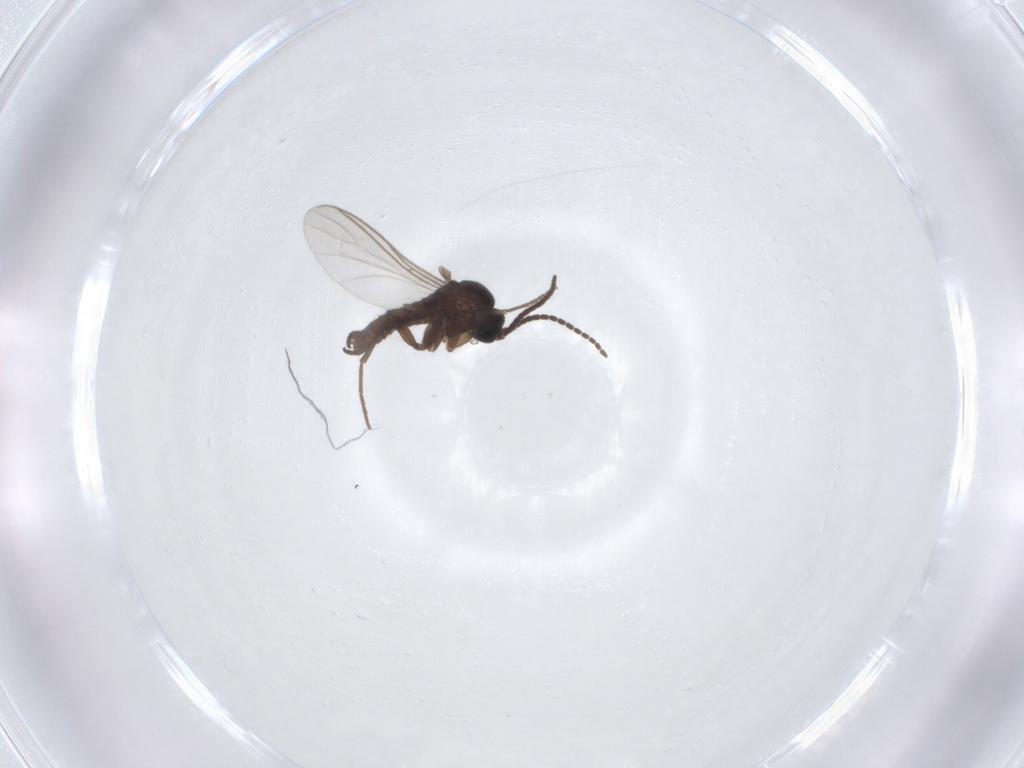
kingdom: Animalia
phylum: Arthropoda
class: Insecta
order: Diptera
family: Sciaridae
